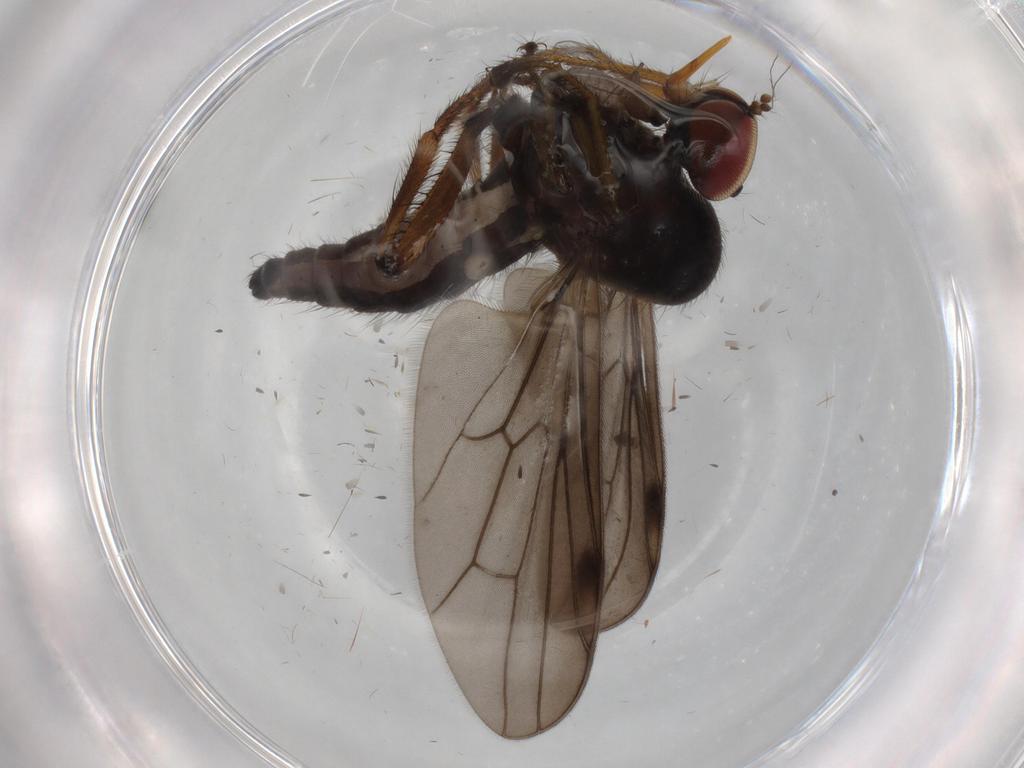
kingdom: Animalia
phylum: Arthropoda
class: Insecta
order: Diptera
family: Chironomidae
